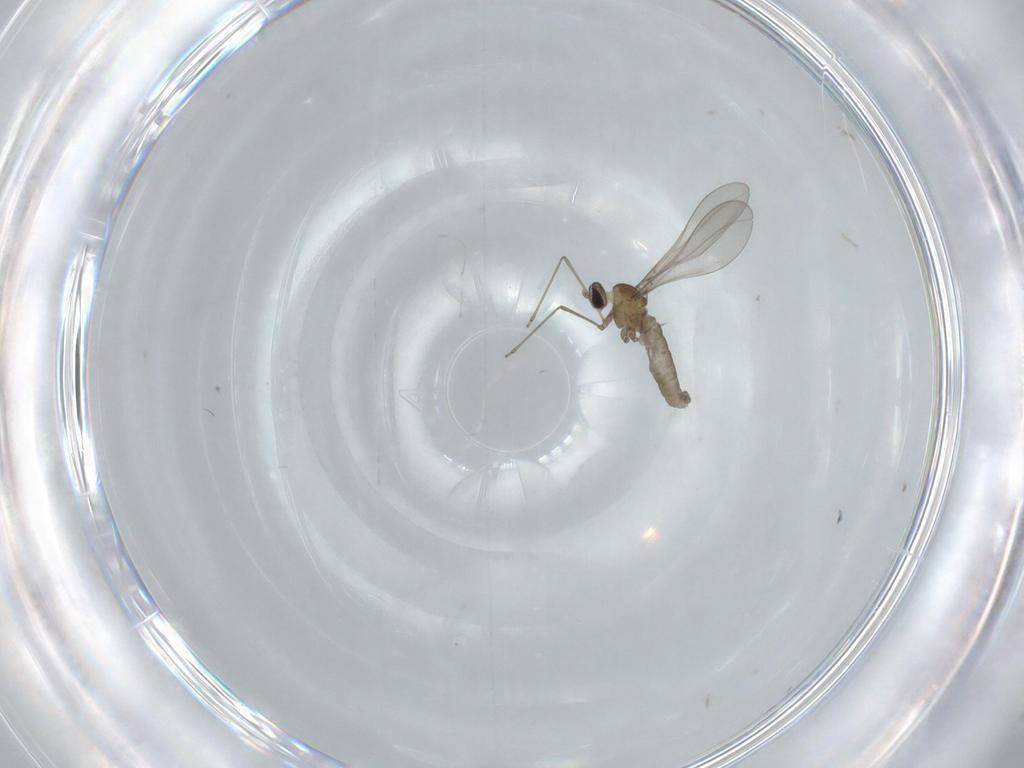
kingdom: Animalia
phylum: Arthropoda
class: Insecta
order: Diptera
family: Cecidomyiidae
